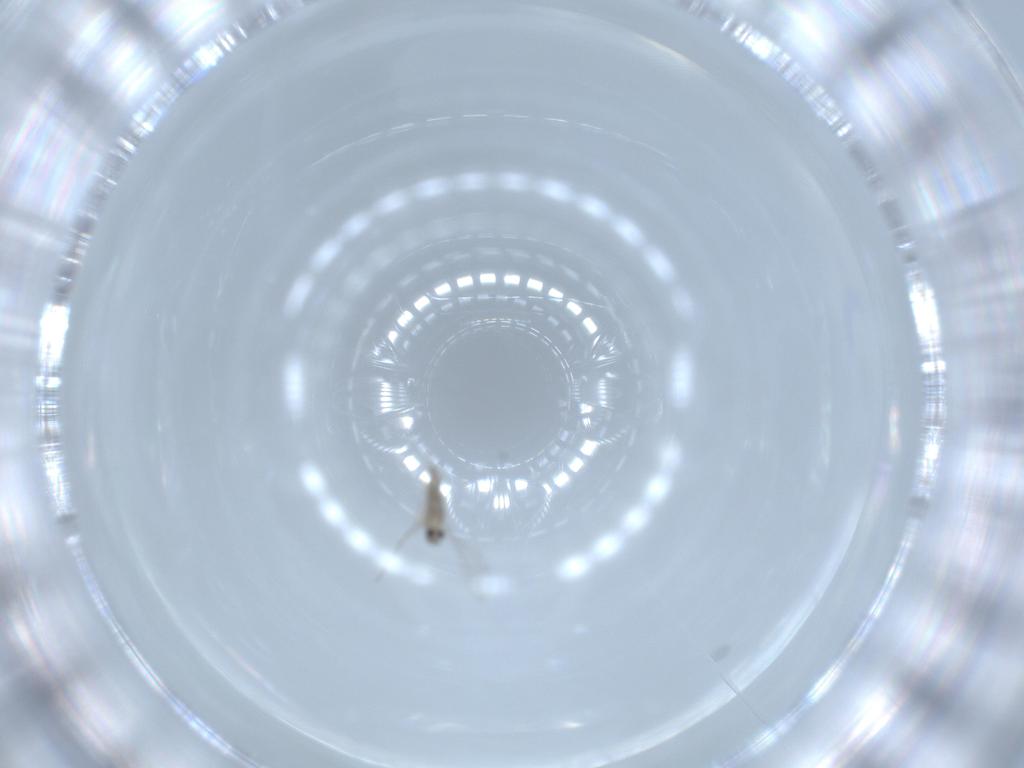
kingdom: Animalia
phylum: Arthropoda
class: Insecta
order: Diptera
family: Cecidomyiidae
